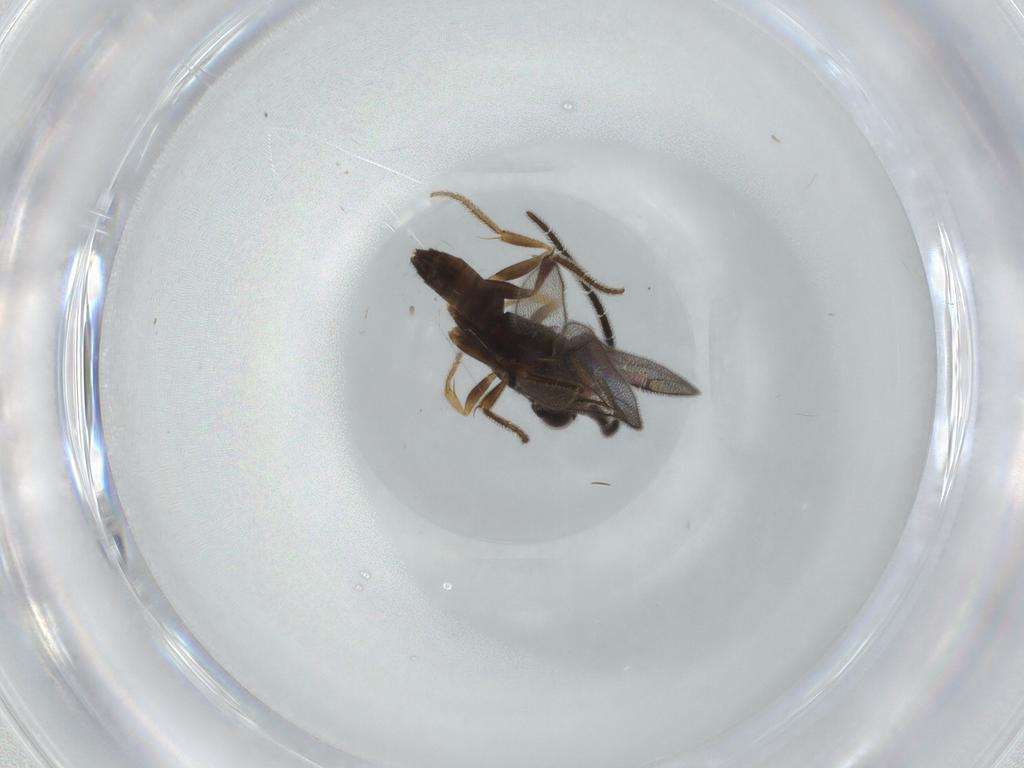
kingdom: Animalia
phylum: Arthropoda
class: Insecta
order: Hymenoptera
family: Dryinidae
